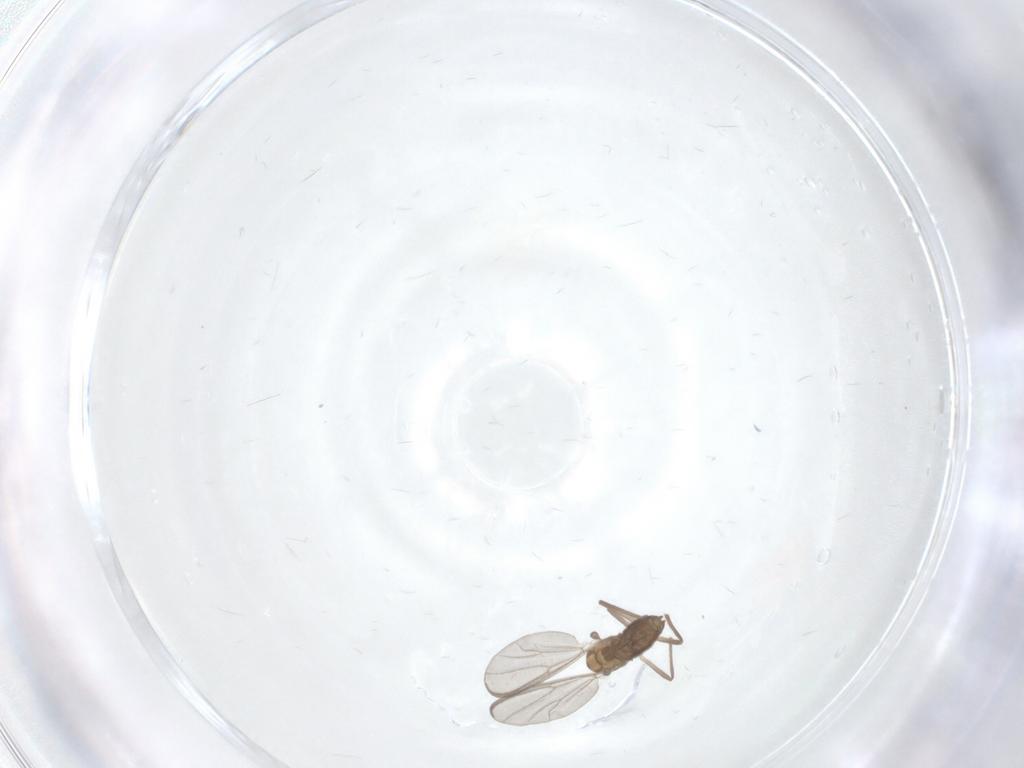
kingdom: Animalia
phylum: Arthropoda
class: Insecta
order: Diptera
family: Chironomidae
